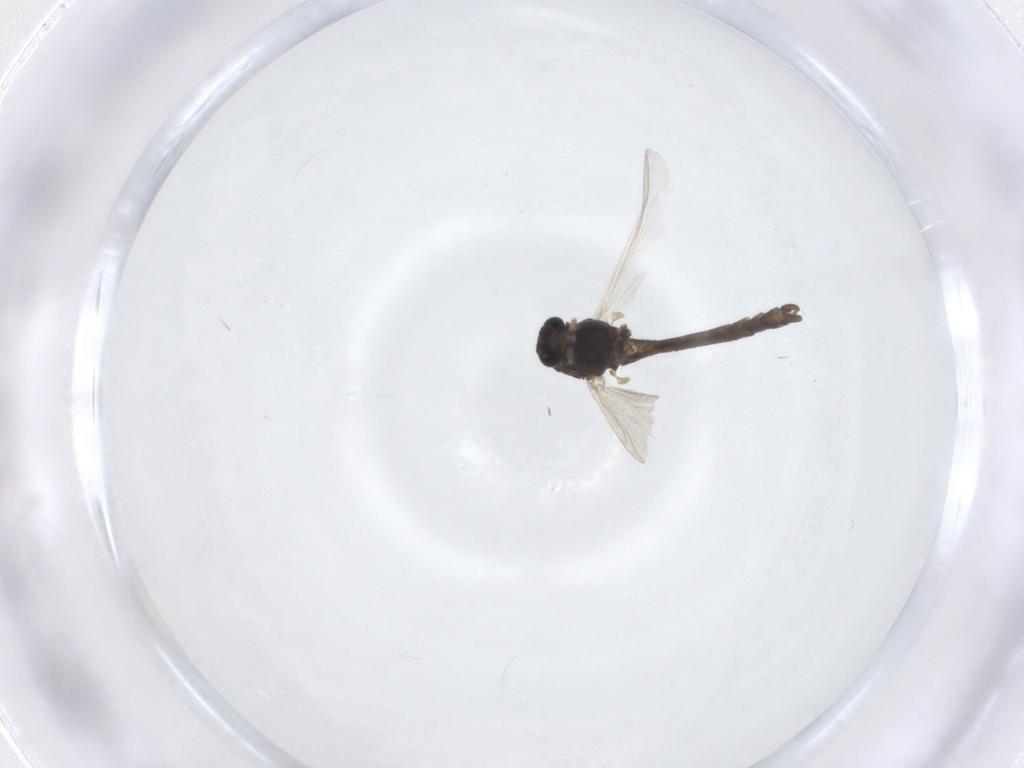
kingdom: Animalia
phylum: Arthropoda
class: Insecta
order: Diptera
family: Chironomidae
